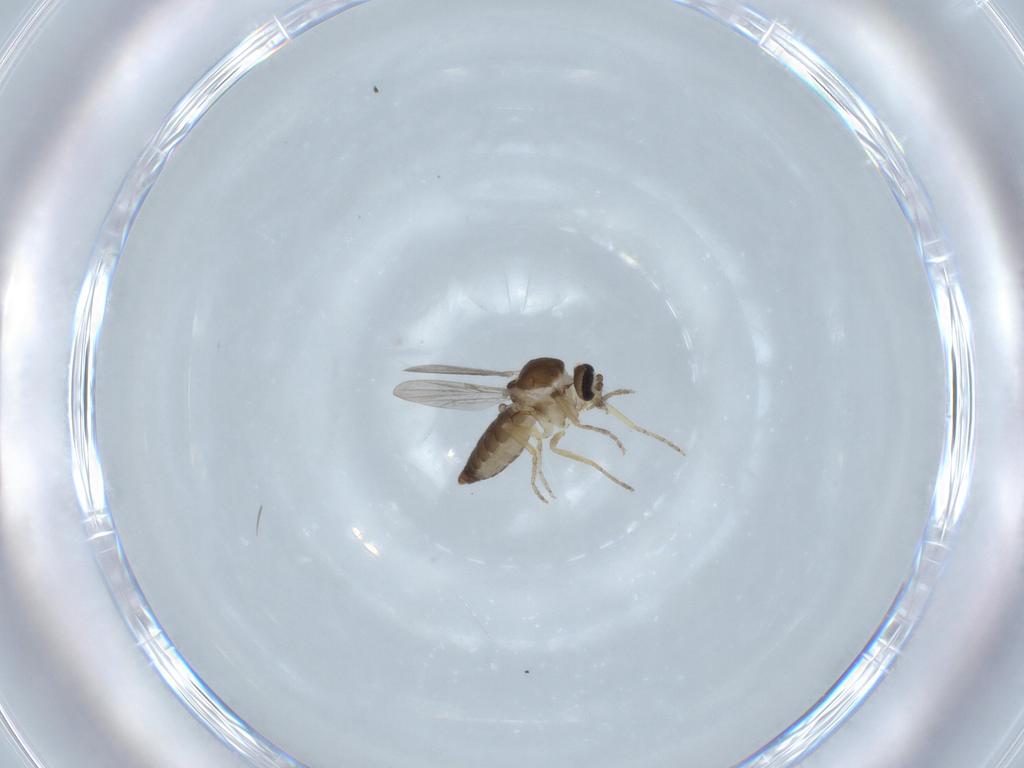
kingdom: Animalia
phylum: Arthropoda
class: Insecta
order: Diptera
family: Ceratopogonidae
